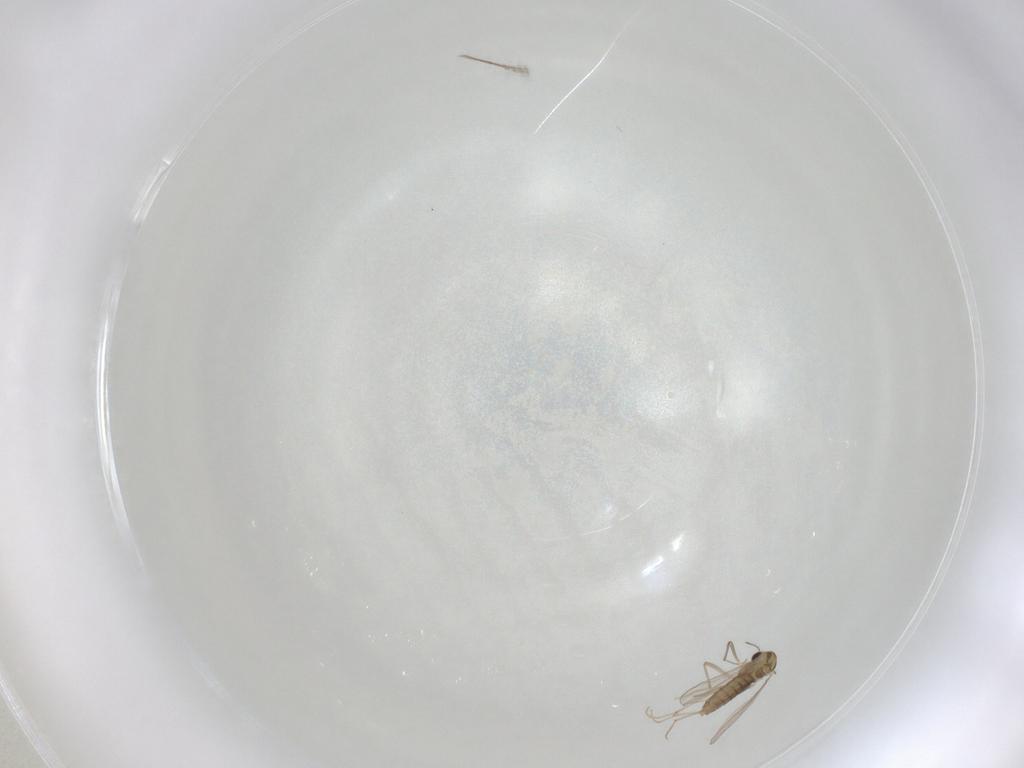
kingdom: Animalia
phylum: Arthropoda
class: Insecta
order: Diptera
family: Chironomidae
